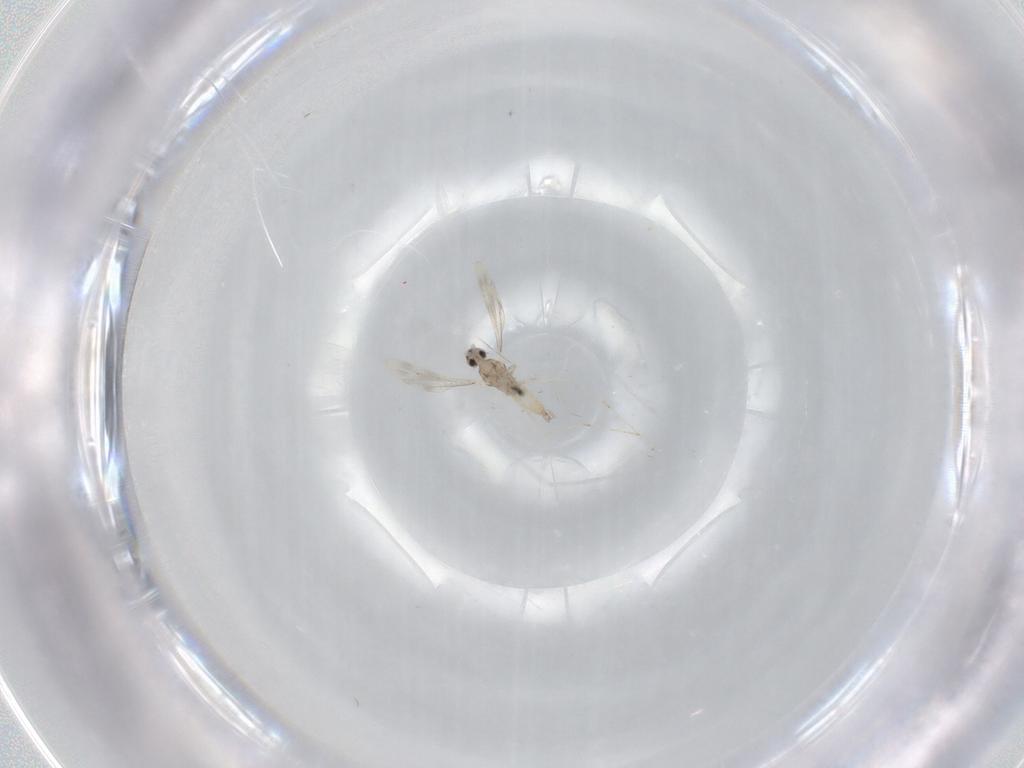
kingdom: Animalia
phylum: Arthropoda
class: Insecta
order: Diptera
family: Cecidomyiidae
